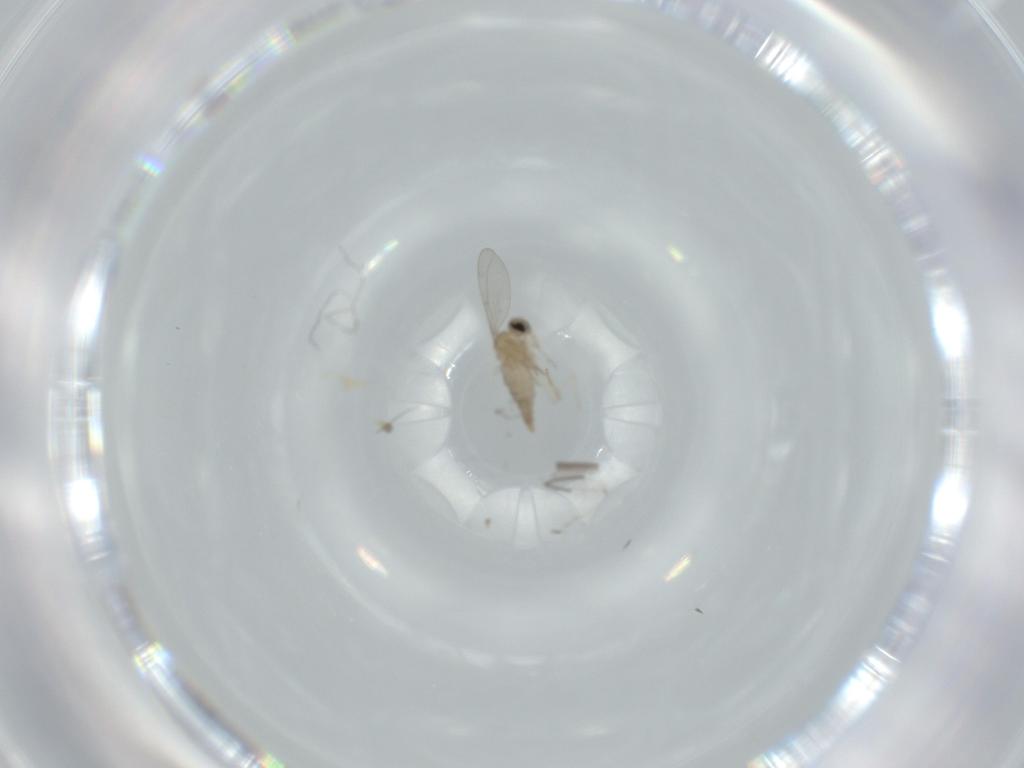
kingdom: Animalia
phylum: Arthropoda
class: Insecta
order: Diptera
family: Cecidomyiidae
